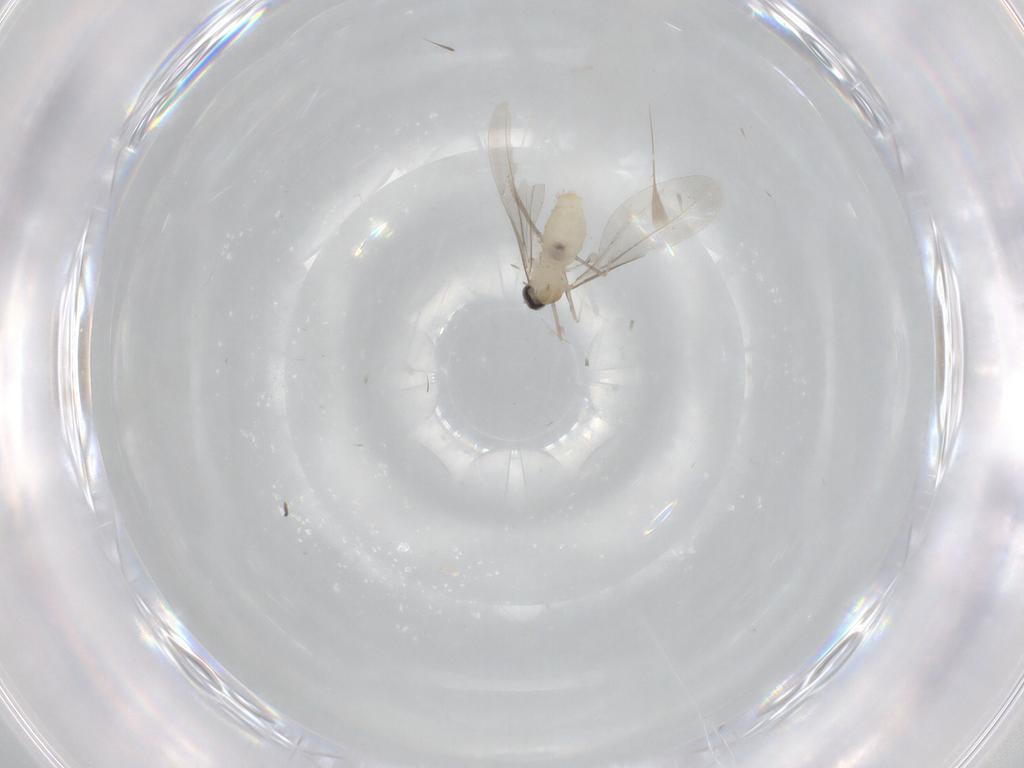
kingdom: Animalia
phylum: Arthropoda
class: Insecta
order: Diptera
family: Cecidomyiidae
